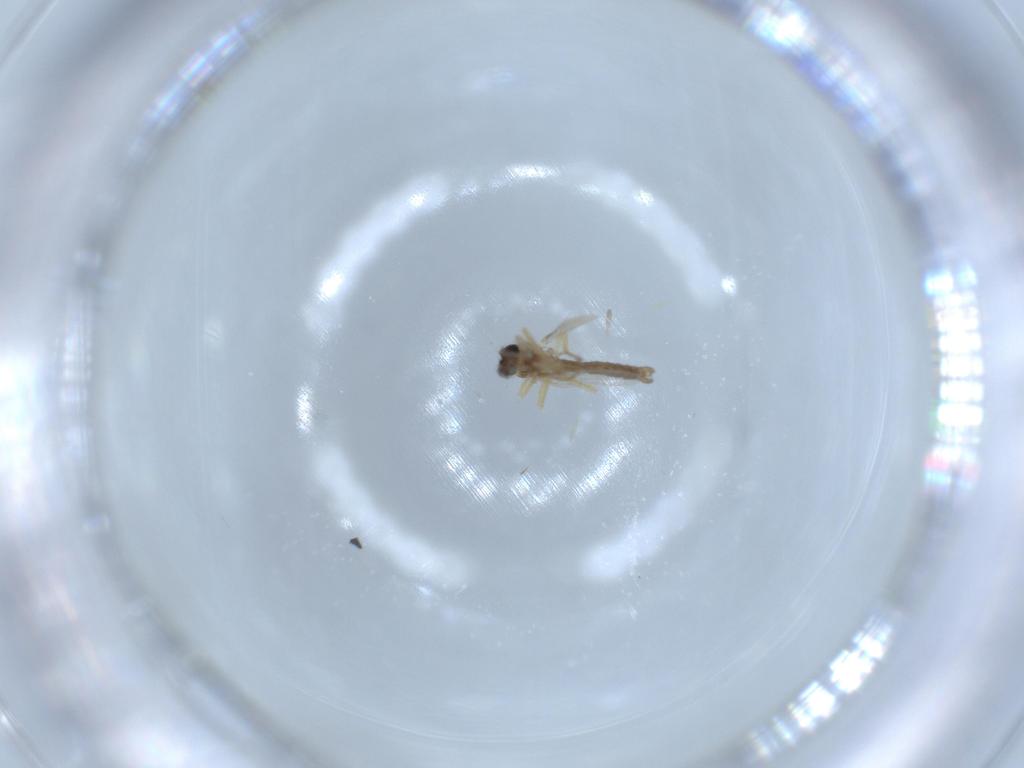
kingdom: Animalia
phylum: Arthropoda
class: Insecta
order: Diptera
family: Ceratopogonidae
